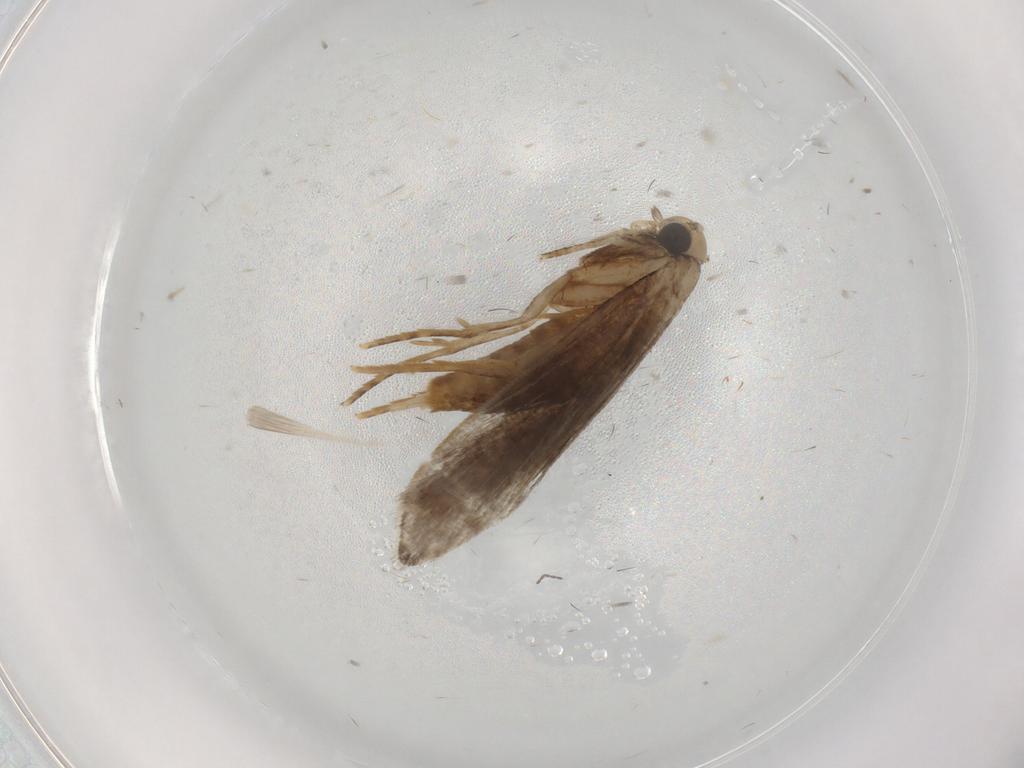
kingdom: Animalia
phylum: Arthropoda
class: Insecta
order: Lepidoptera
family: Tineidae
